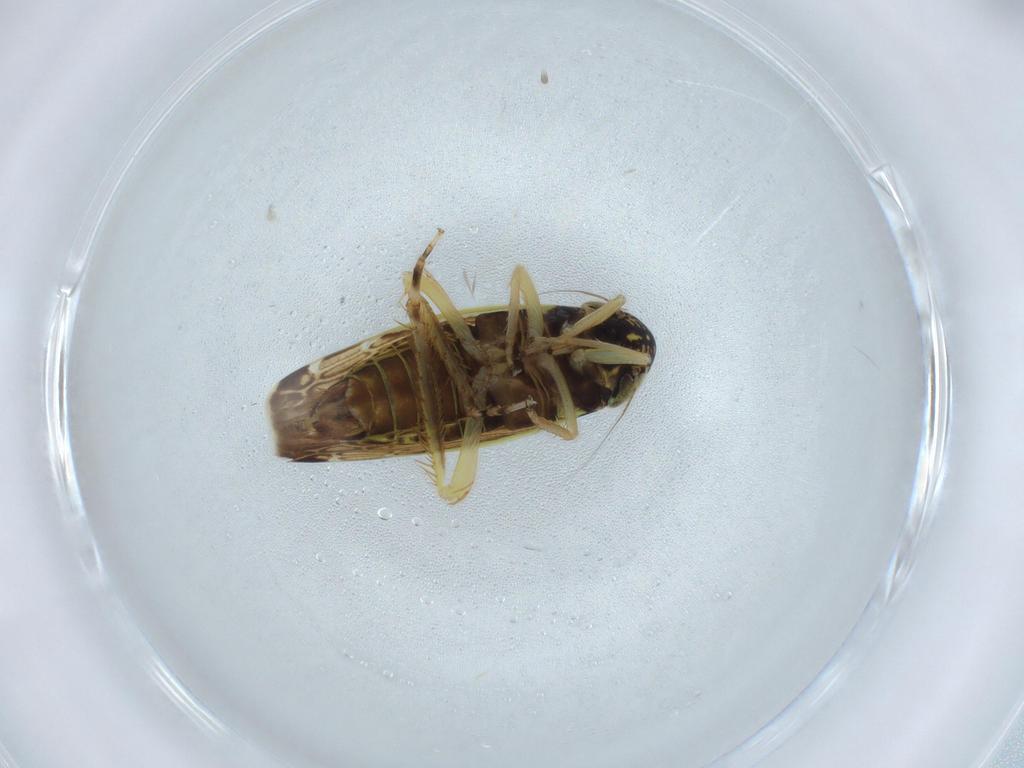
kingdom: Animalia
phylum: Arthropoda
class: Insecta
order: Hemiptera
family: Cicadellidae
